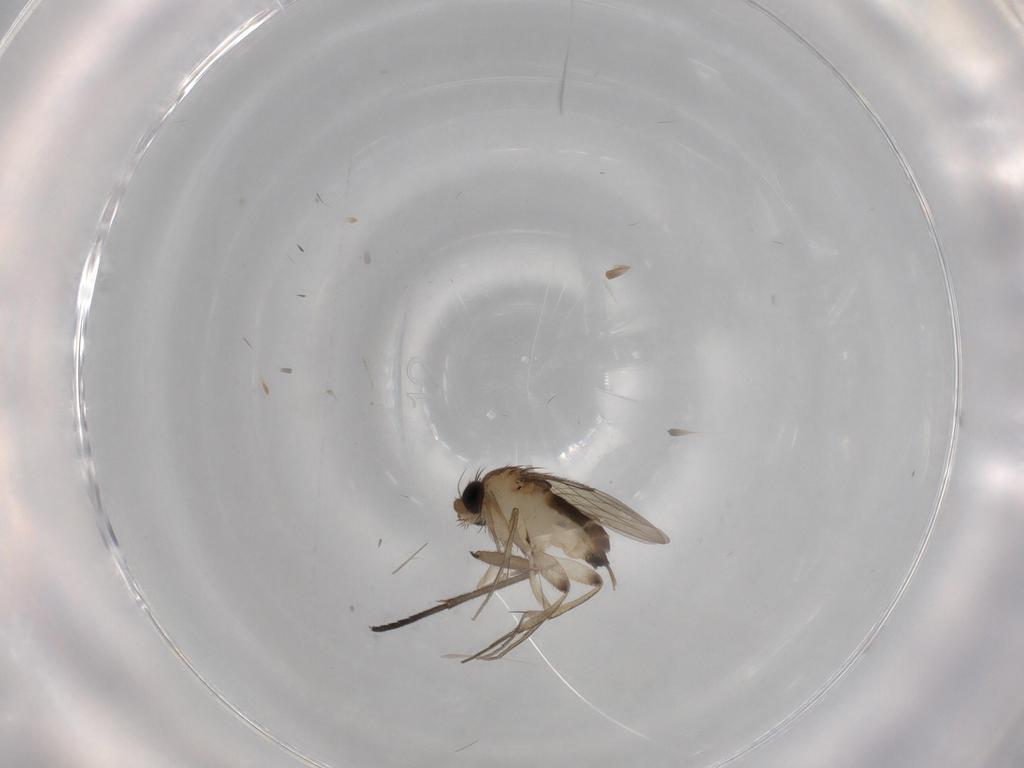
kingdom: Animalia
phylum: Arthropoda
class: Insecta
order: Diptera
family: Phoridae
